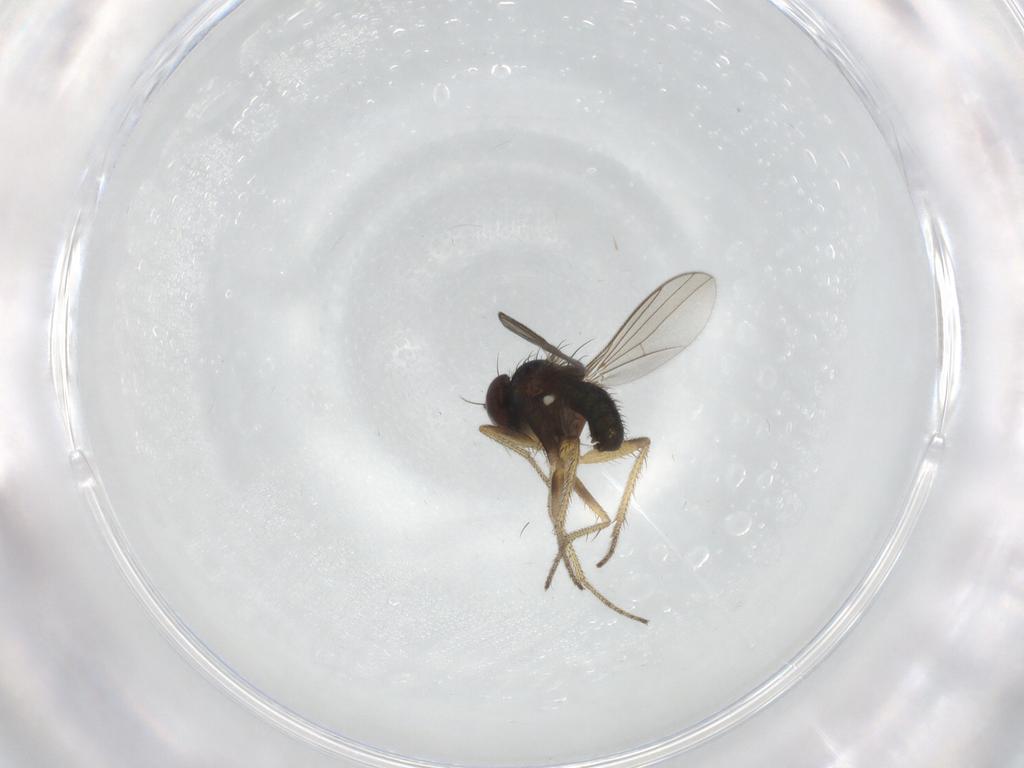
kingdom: Animalia
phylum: Arthropoda
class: Insecta
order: Diptera
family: Dolichopodidae
